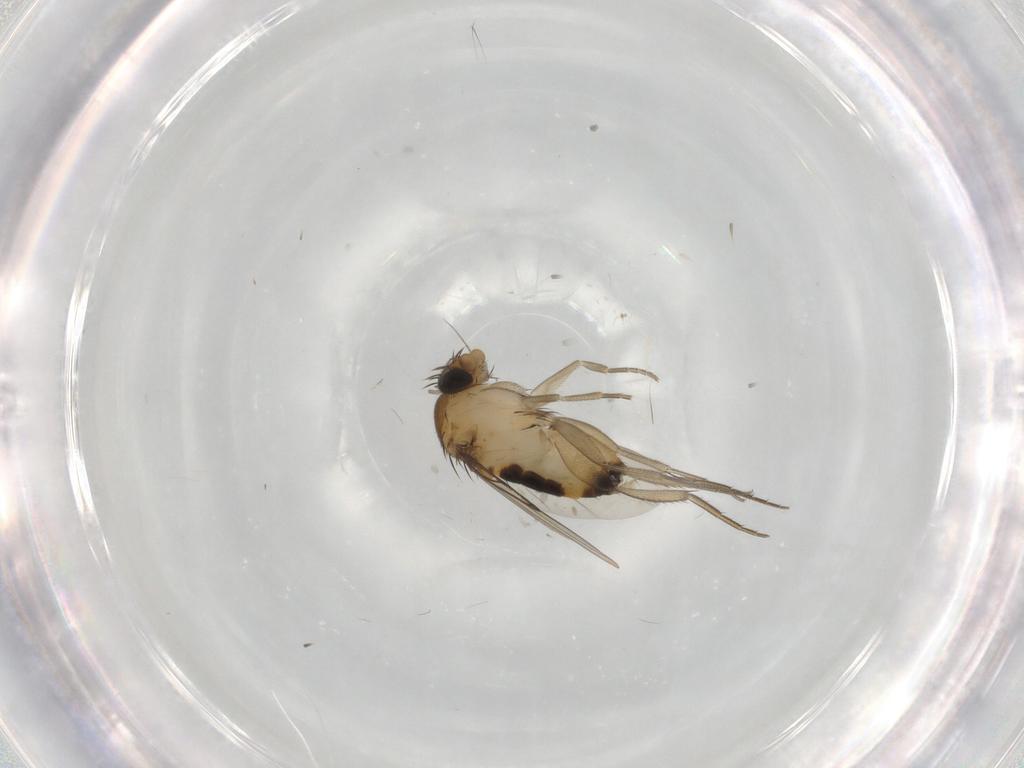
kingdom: Animalia
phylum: Arthropoda
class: Insecta
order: Diptera
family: Phoridae
